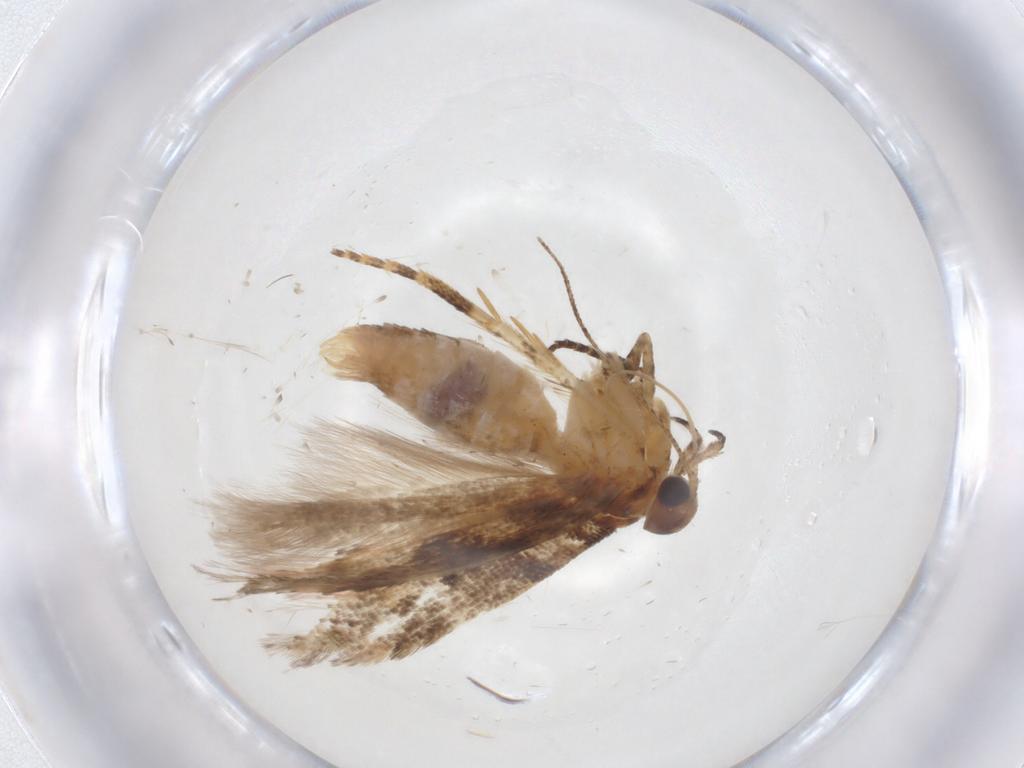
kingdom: Animalia
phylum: Arthropoda
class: Insecta
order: Lepidoptera
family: Gelechiidae
